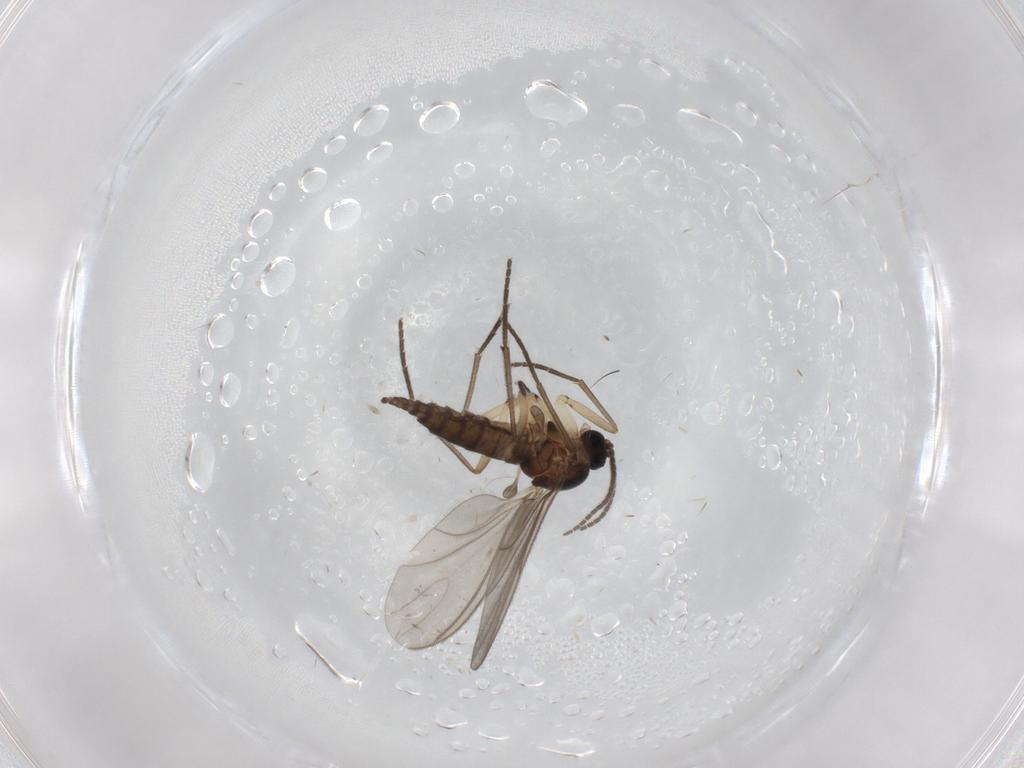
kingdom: Animalia
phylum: Arthropoda
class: Insecta
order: Diptera
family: Sciaridae
